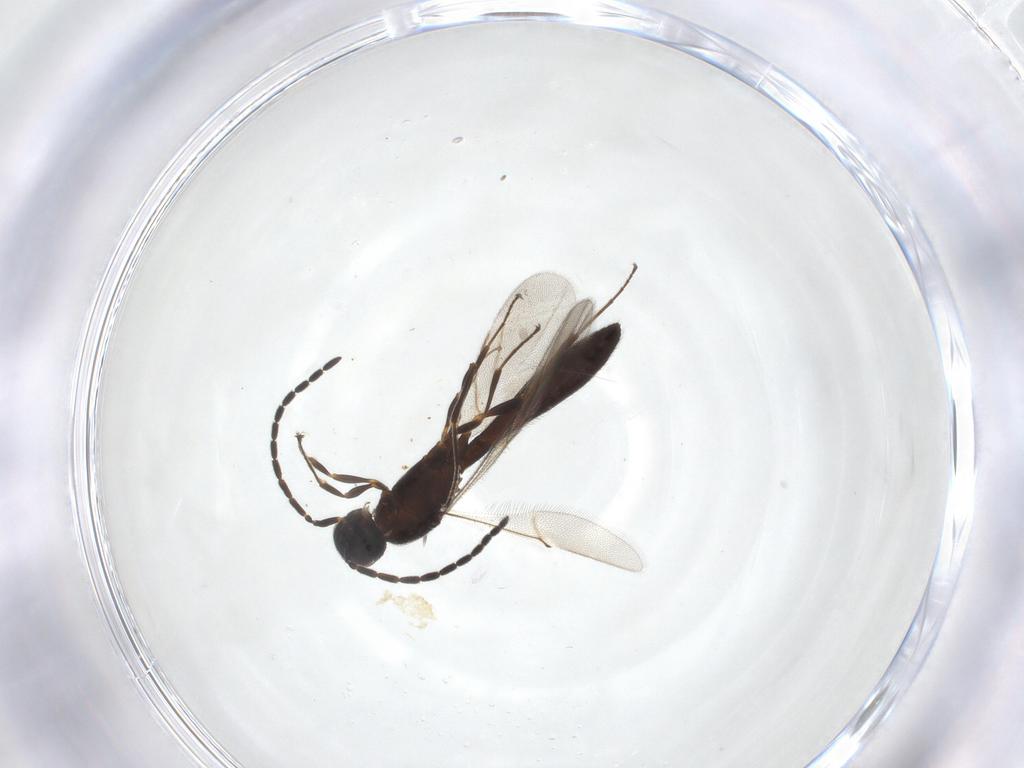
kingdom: Animalia
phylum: Arthropoda
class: Insecta
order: Hymenoptera
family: Scelionidae
